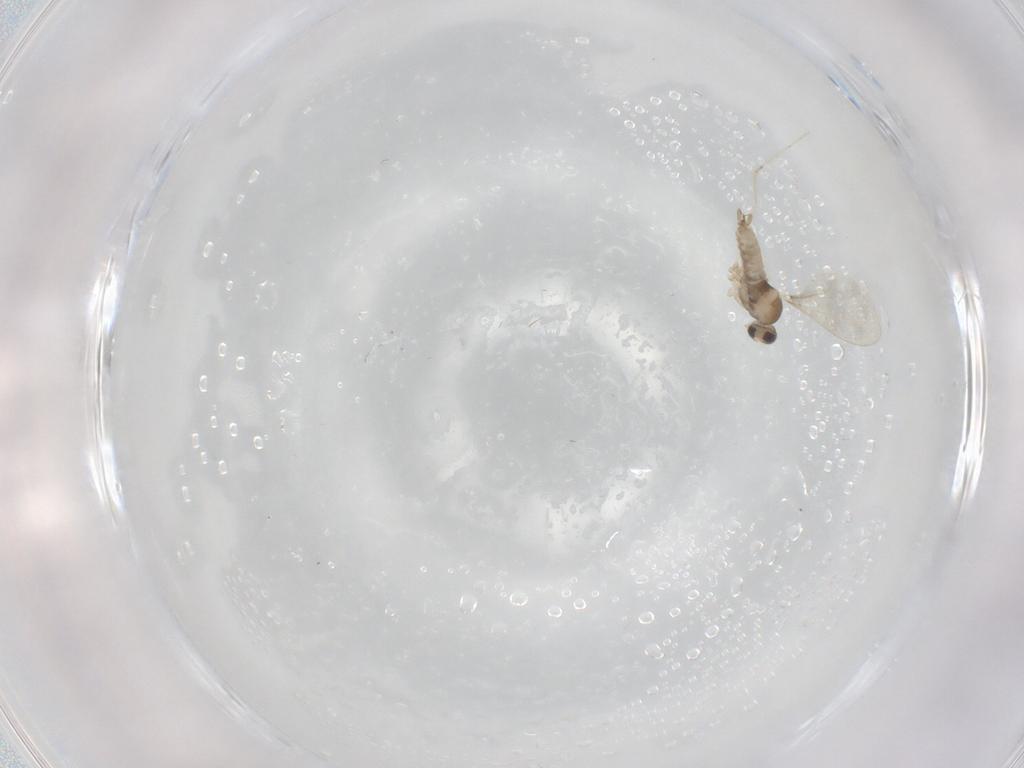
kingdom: Animalia
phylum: Arthropoda
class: Insecta
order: Diptera
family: Cecidomyiidae
